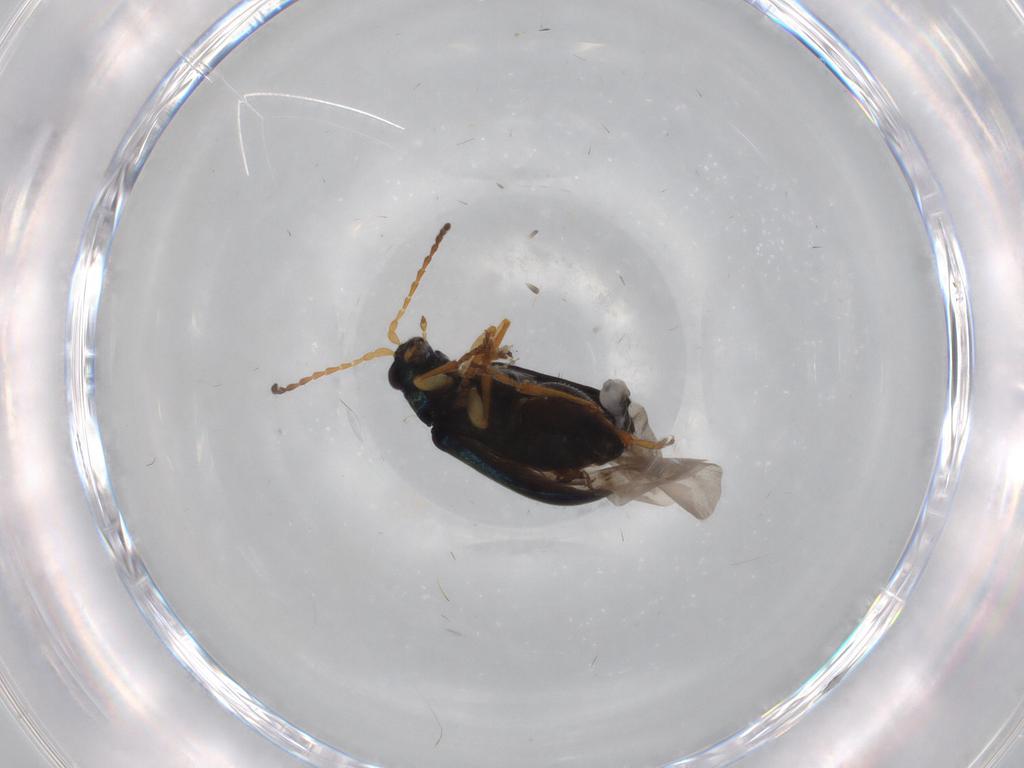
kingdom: Animalia
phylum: Arthropoda
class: Insecta
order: Coleoptera
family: Chrysomelidae
